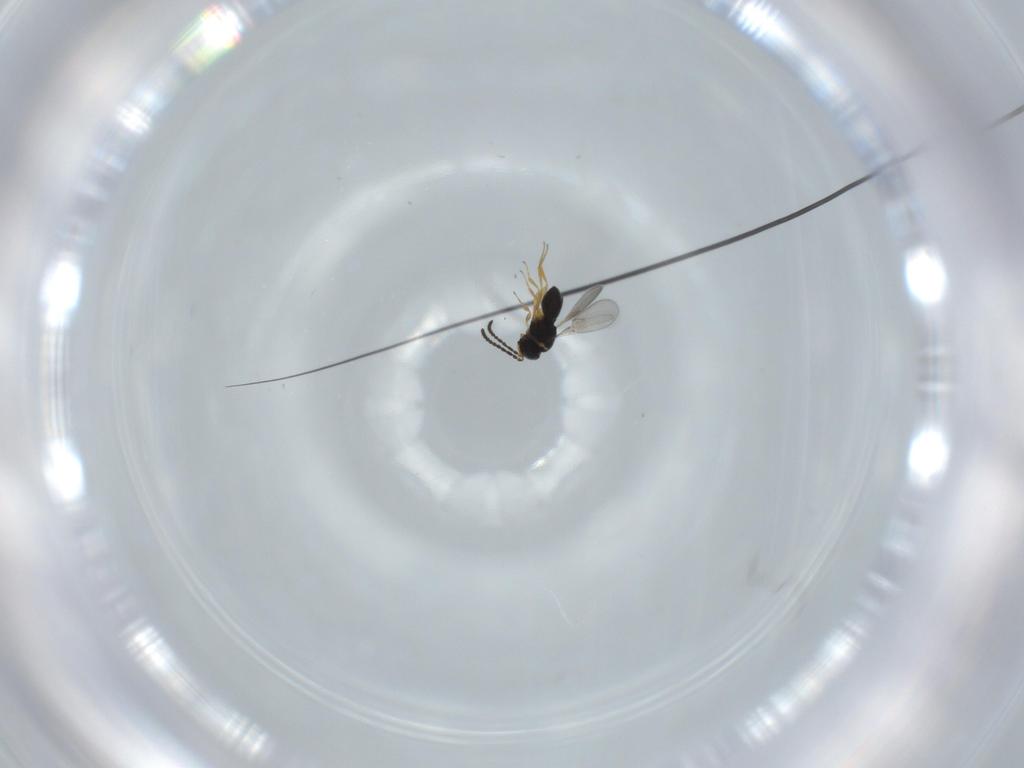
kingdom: Animalia
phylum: Arthropoda
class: Insecta
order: Hymenoptera
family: Scelionidae
